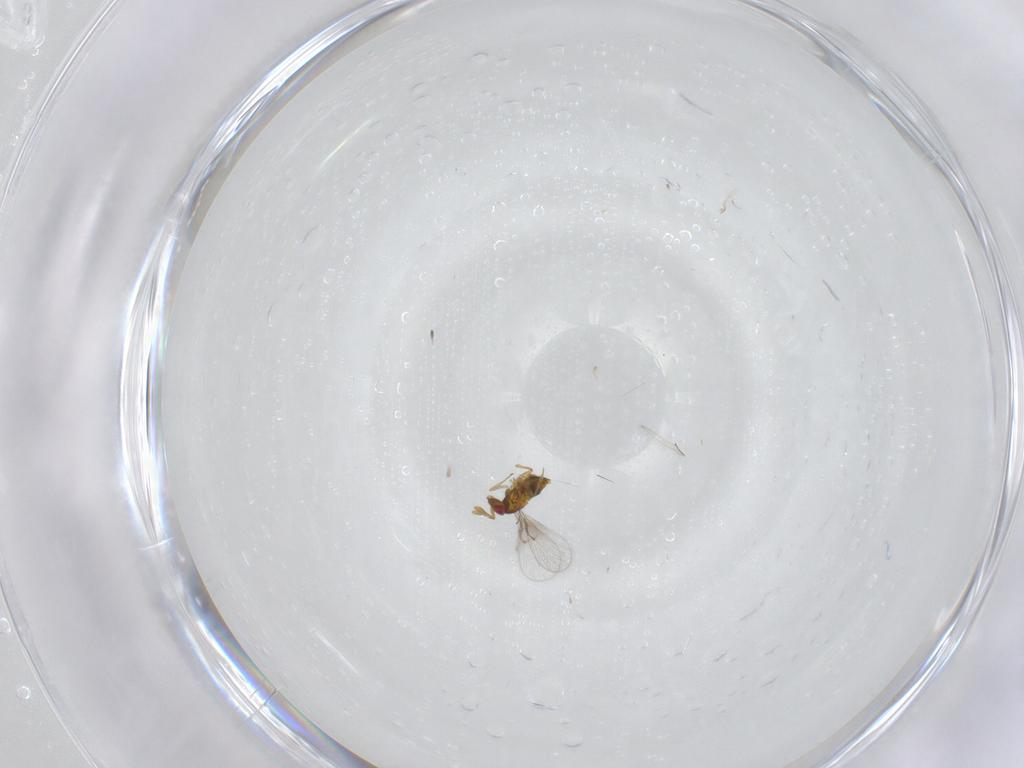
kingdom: Animalia
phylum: Arthropoda
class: Insecta
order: Hymenoptera
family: Trichogrammatidae
